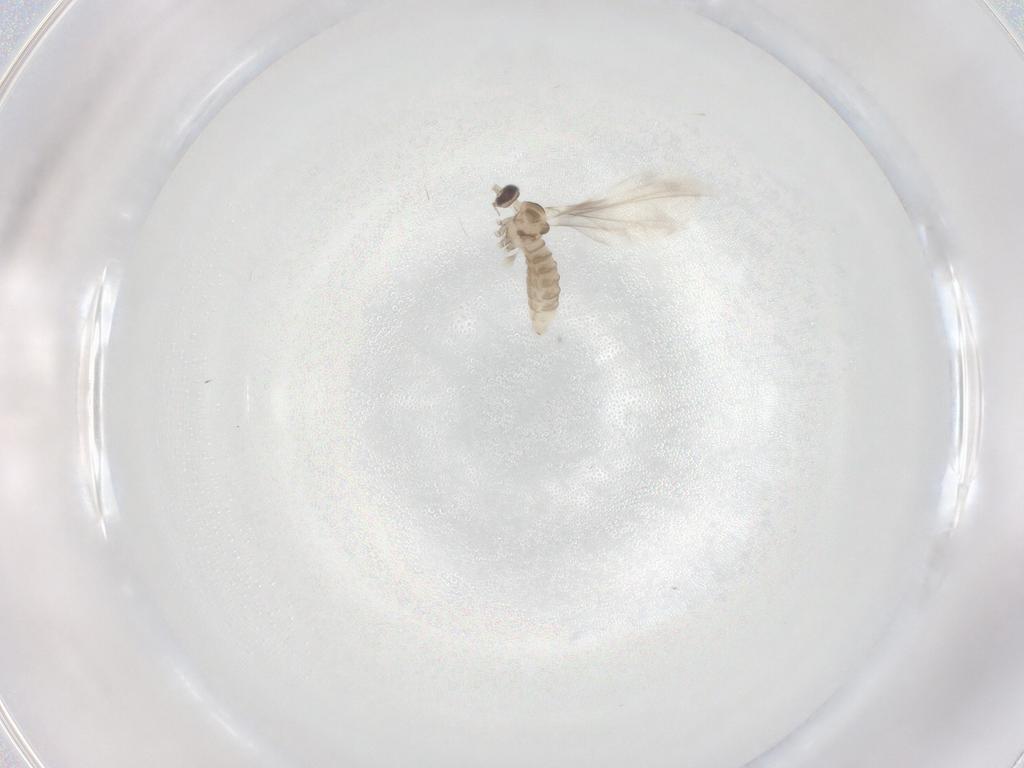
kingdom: Animalia
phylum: Arthropoda
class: Insecta
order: Diptera
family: Cecidomyiidae
